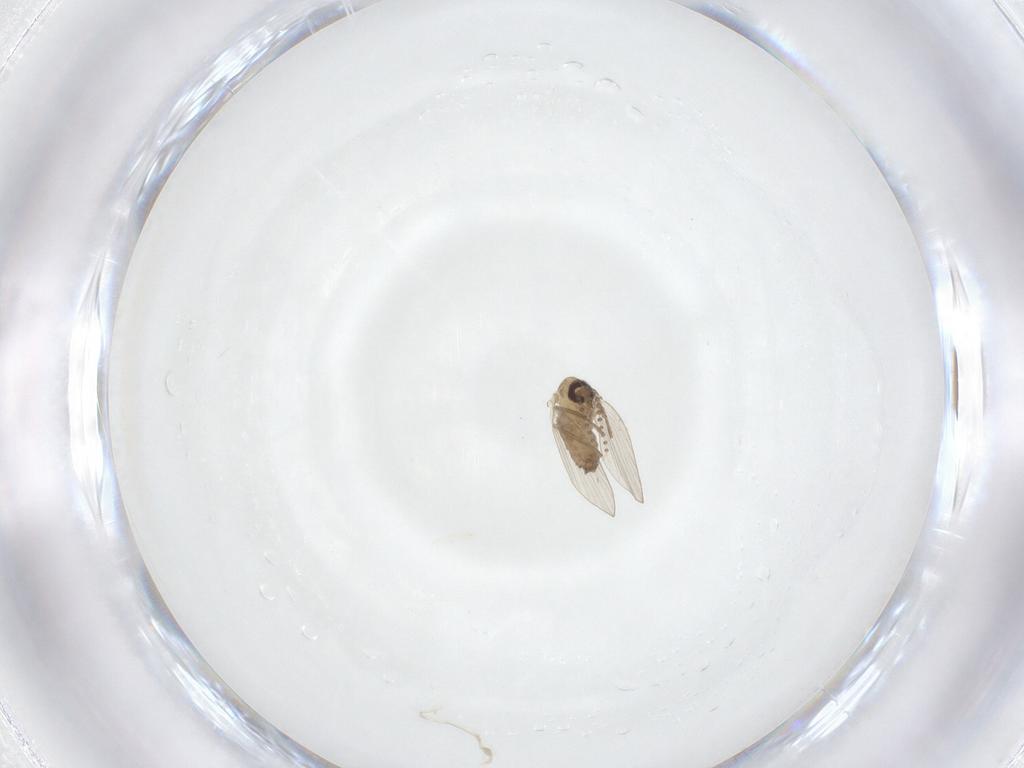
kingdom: Animalia
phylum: Arthropoda
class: Insecta
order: Diptera
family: Psychodidae
